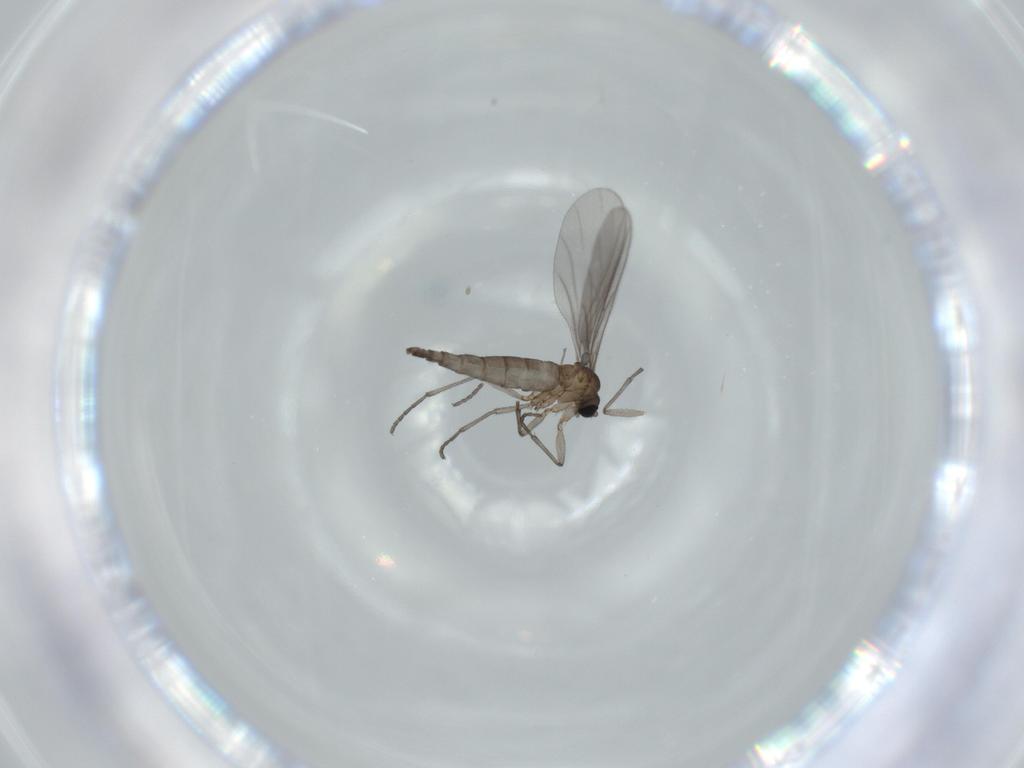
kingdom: Animalia
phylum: Arthropoda
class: Insecta
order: Diptera
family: Sciaridae
